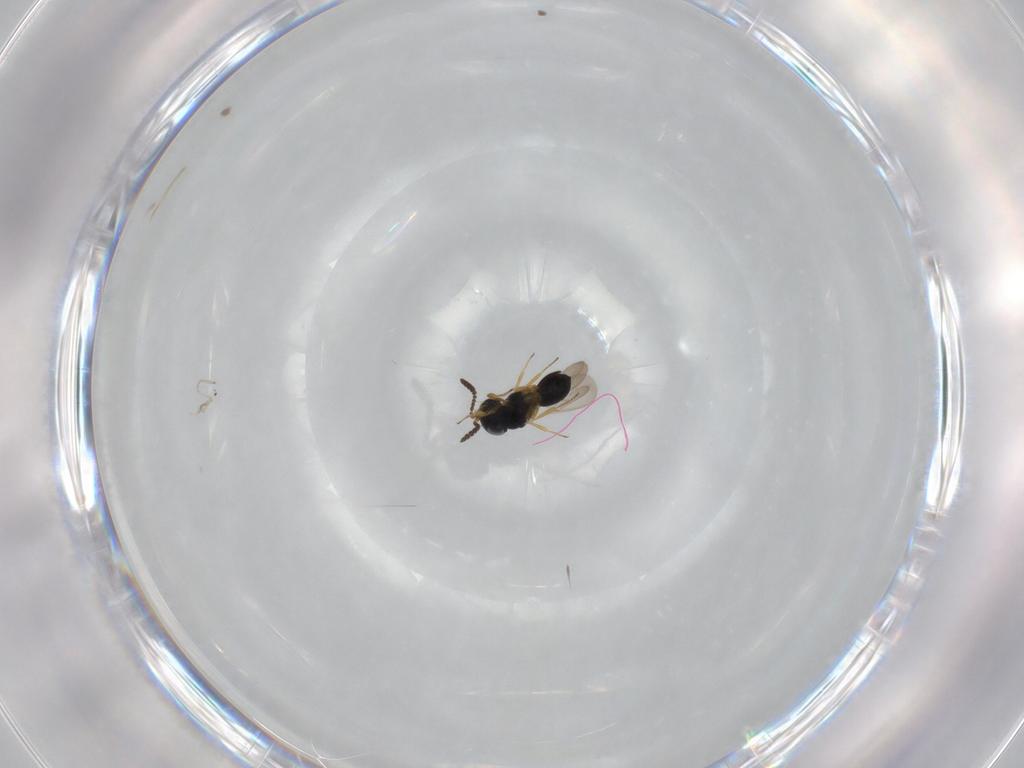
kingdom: Animalia
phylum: Arthropoda
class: Insecta
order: Hymenoptera
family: Scelionidae
